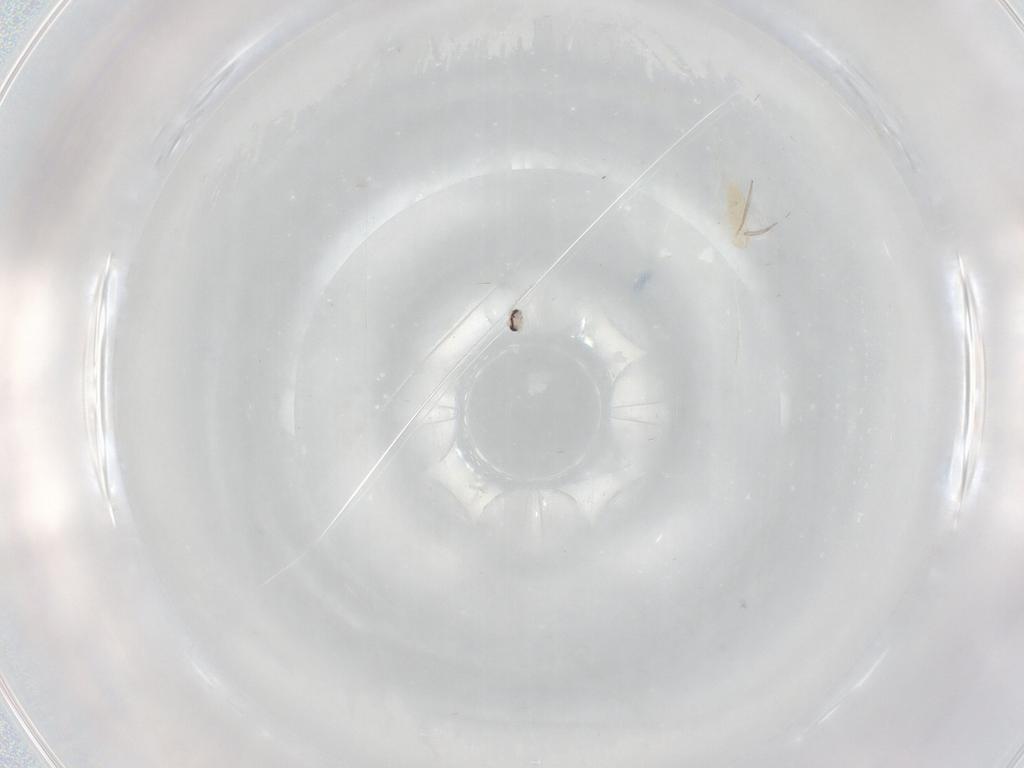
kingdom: Animalia
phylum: Arthropoda
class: Insecta
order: Diptera
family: Cecidomyiidae
